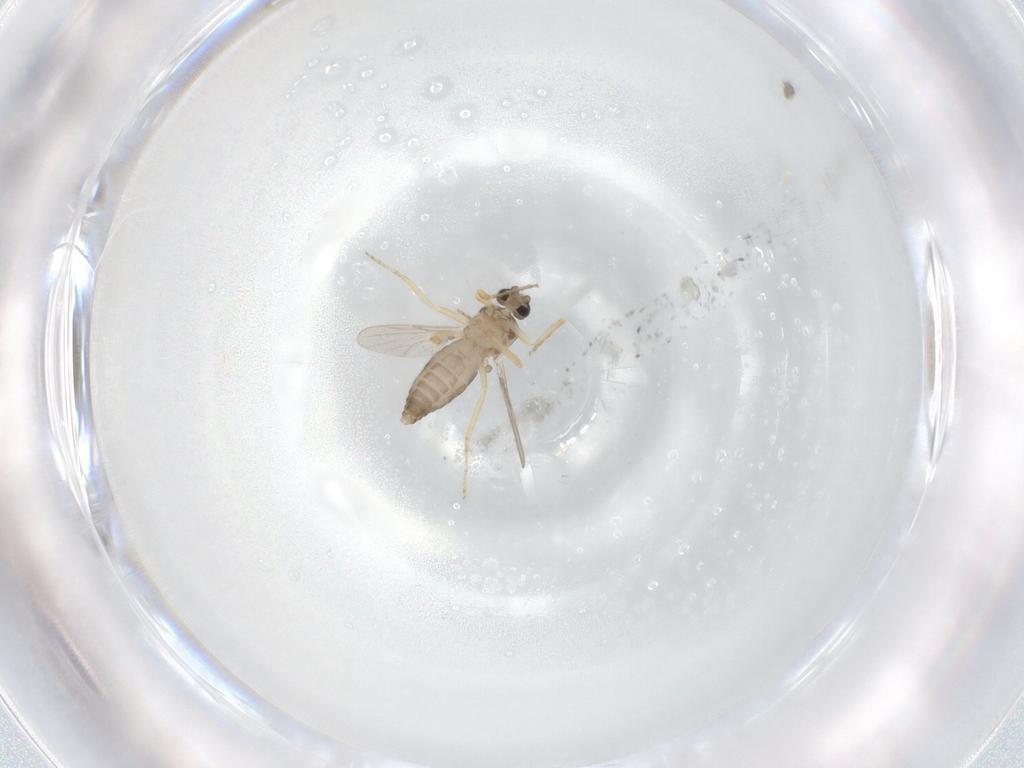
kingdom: Animalia
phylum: Arthropoda
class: Insecta
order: Diptera
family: Ceratopogonidae
